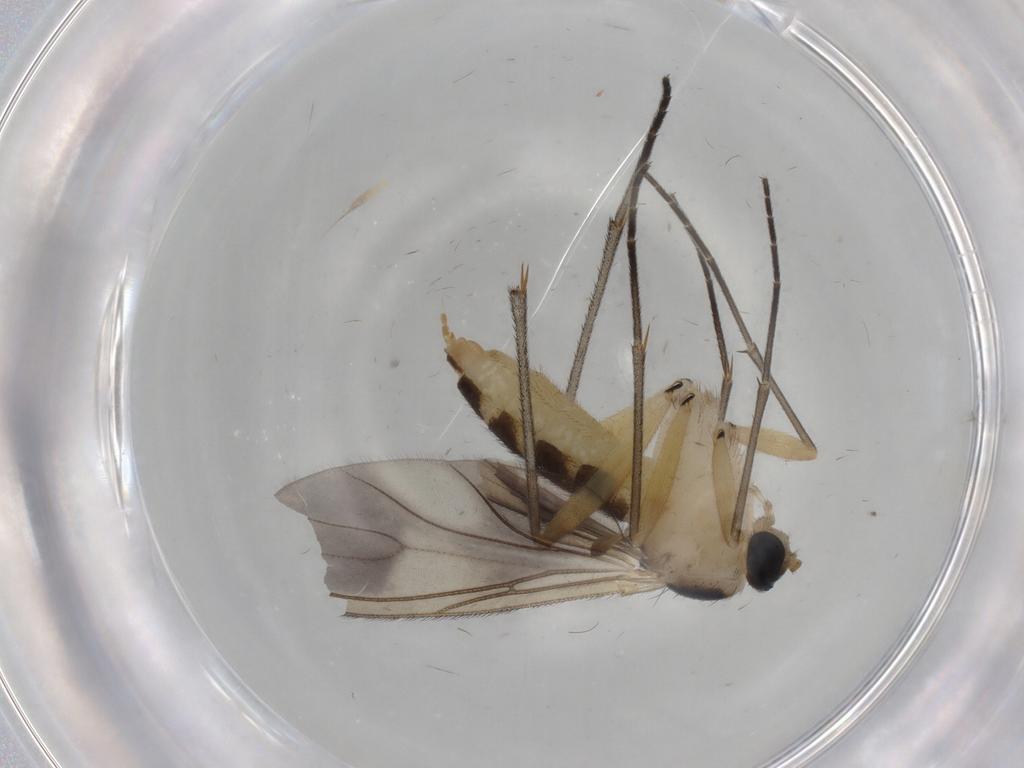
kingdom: Animalia
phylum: Arthropoda
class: Insecta
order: Diptera
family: Sciaridae
